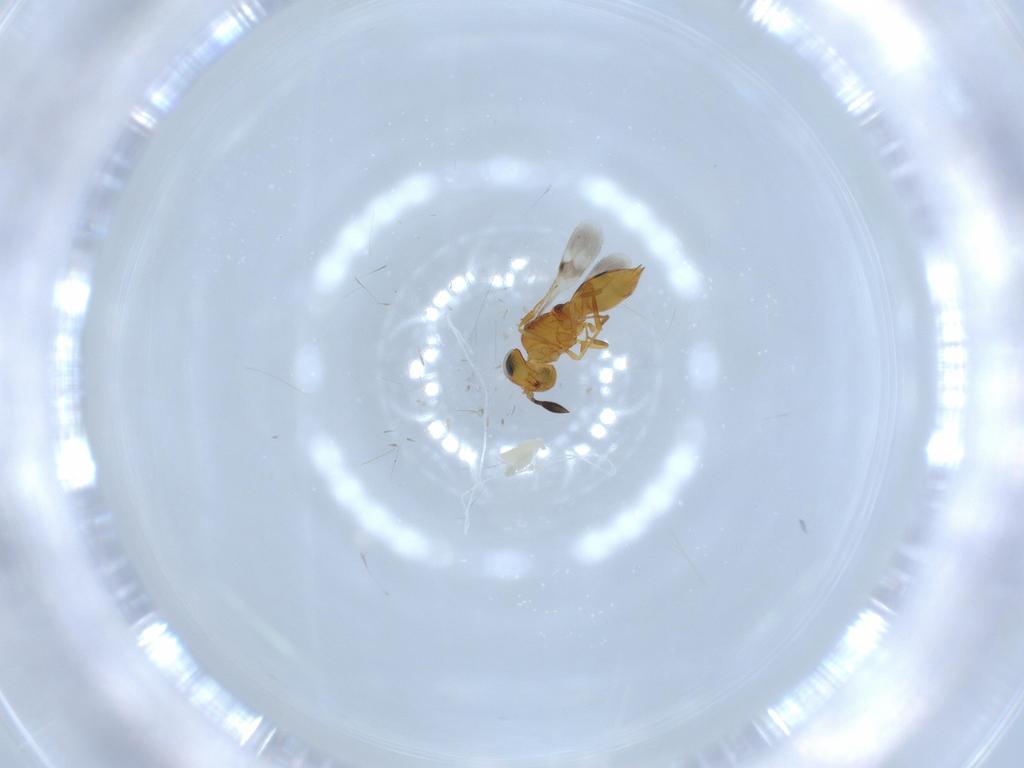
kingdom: Animalia
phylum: Arthropoda
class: Insecta
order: Hymenoptera
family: Scelionidae
